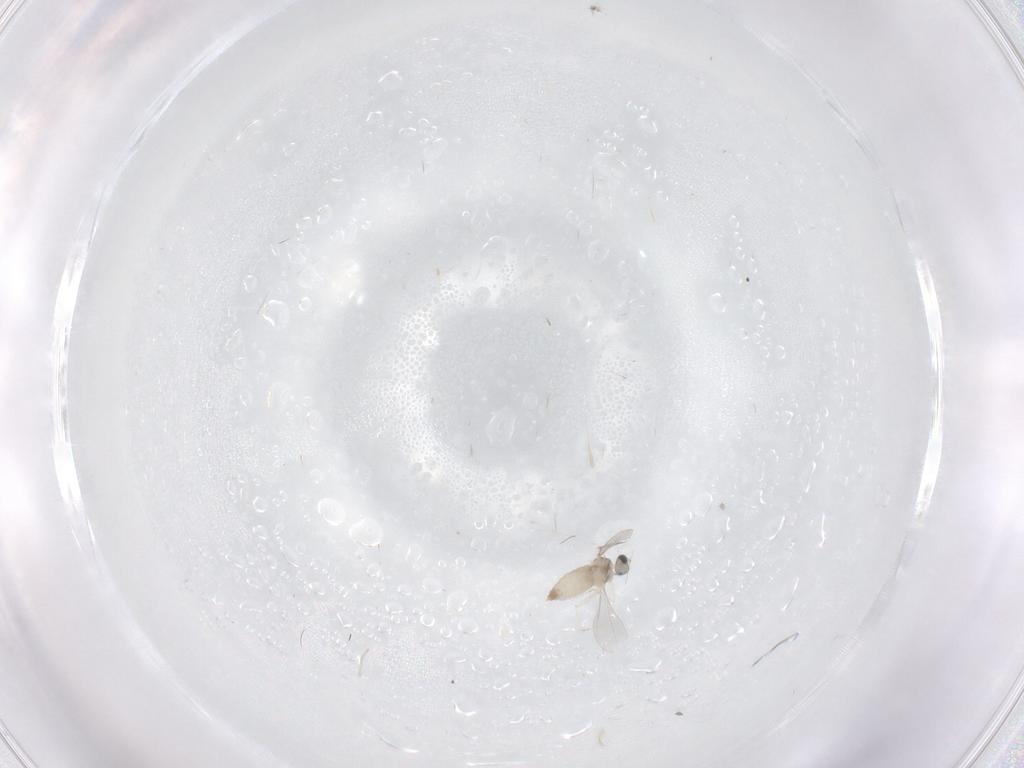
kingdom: Animalia
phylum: Arthropoda
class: Insecta
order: Diptera
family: Cecidomyiidae
